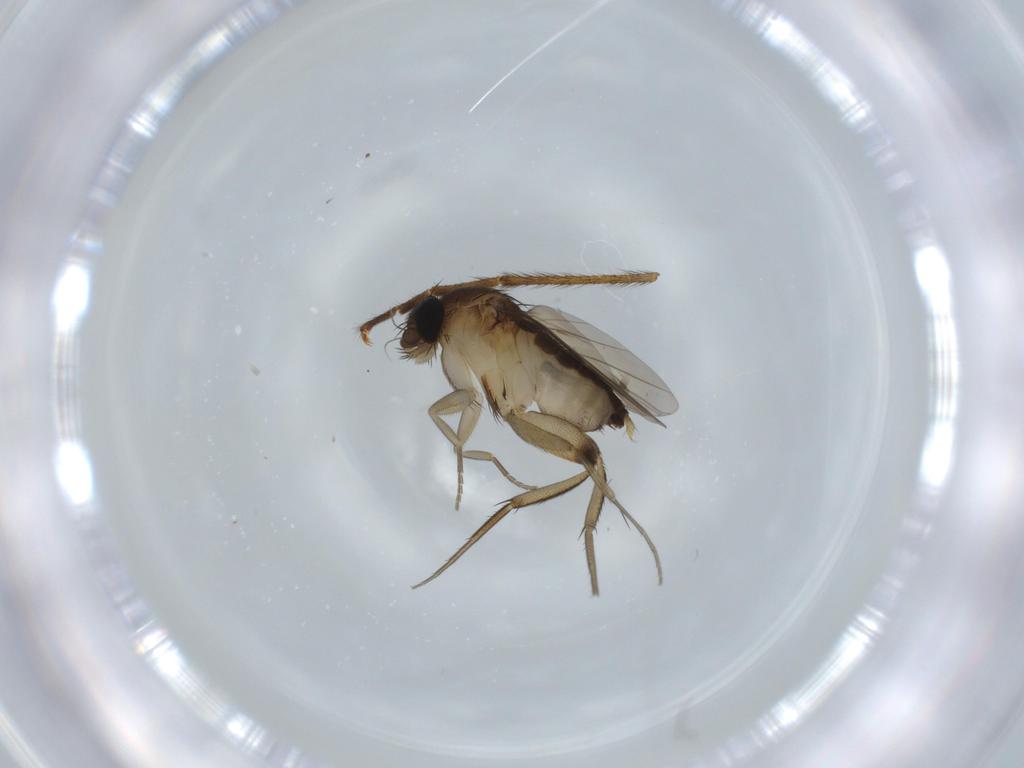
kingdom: Animalia
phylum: Arthropoda
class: Insecta
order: Diptera
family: Phoridae
